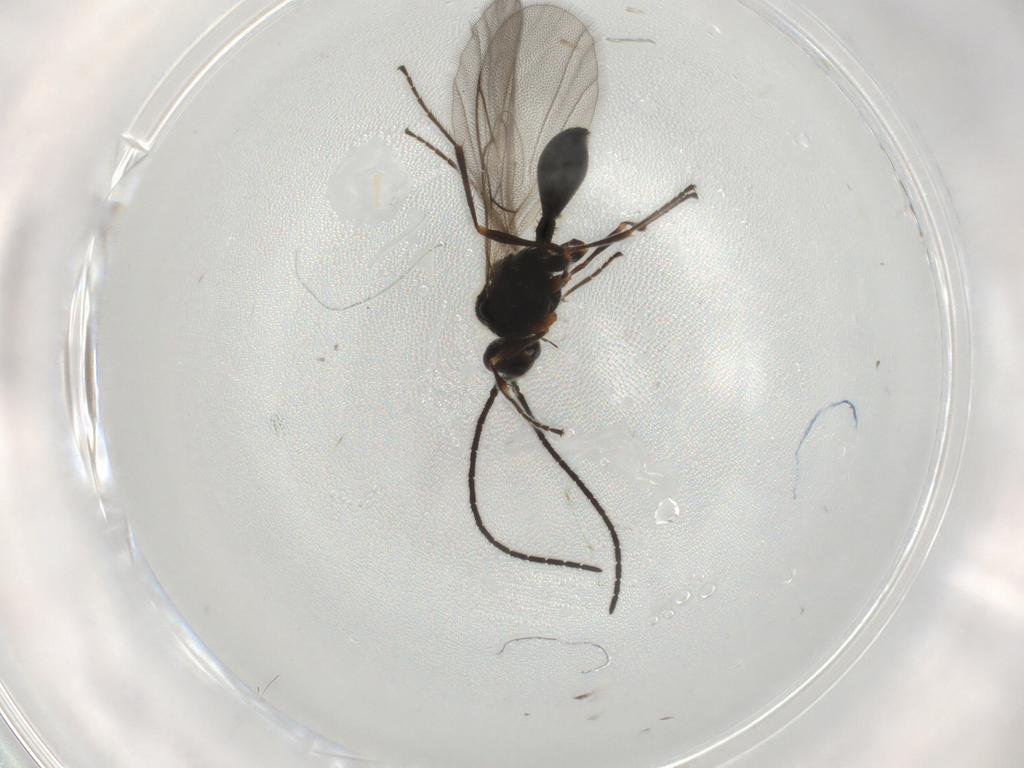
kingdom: Animalia
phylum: Arthropoda
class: Insecta
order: Hymenoptera
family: Diapriidae
